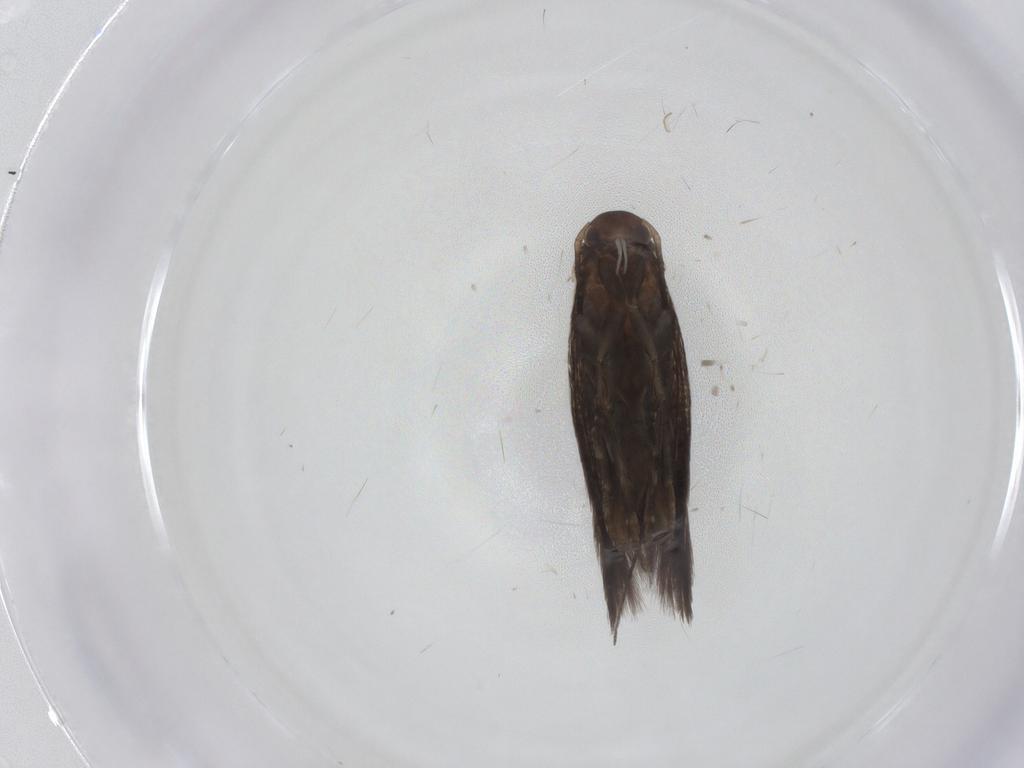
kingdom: Animalia
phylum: Arthropoda
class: Insecta
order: Lepidoptera
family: Elachistidae
